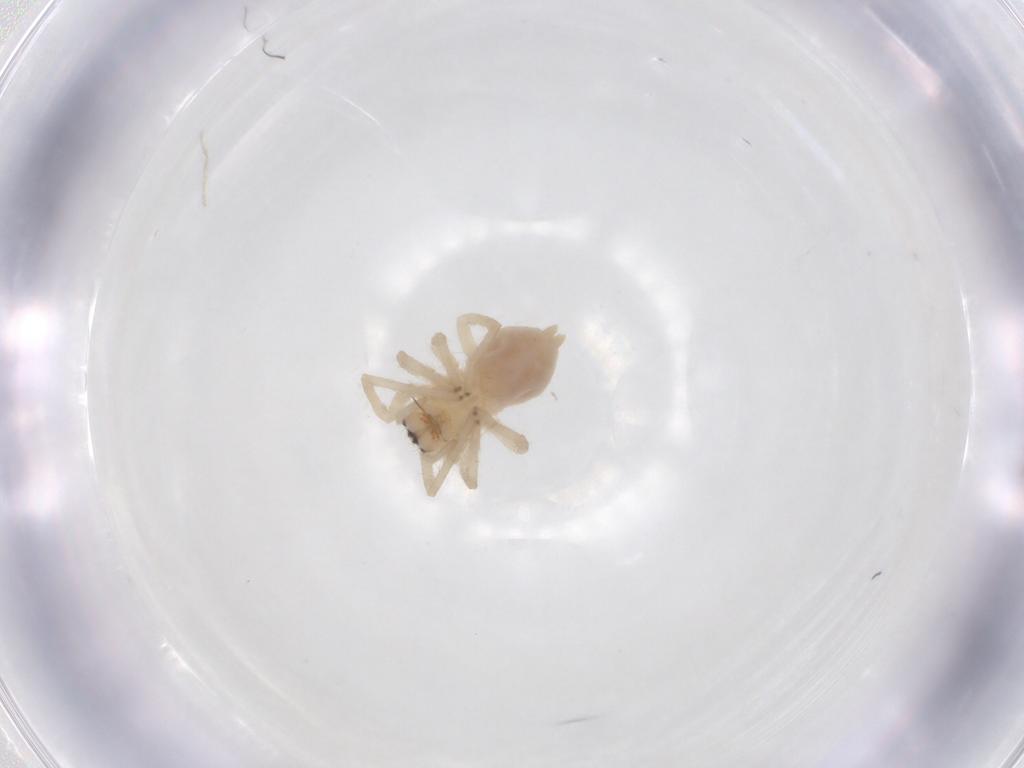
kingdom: Animalia
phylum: Arthropoda
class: Arachnida
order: Araneae
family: Cheiracanthiidae
